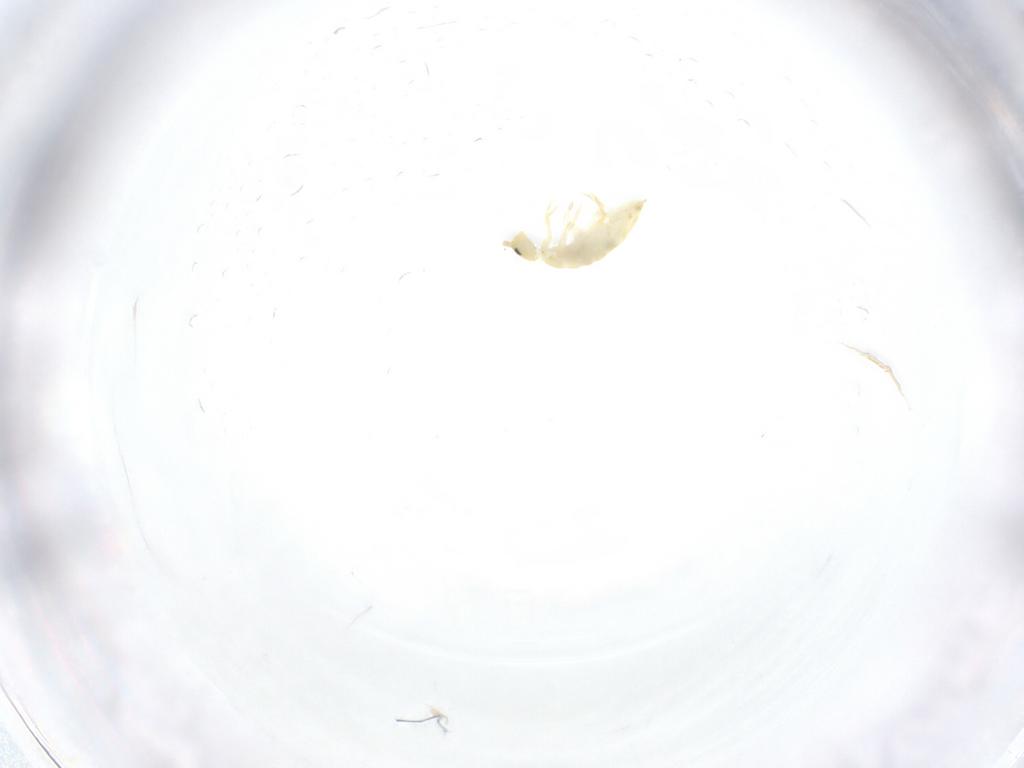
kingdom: Animalia
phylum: Arthropoda
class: Collembola
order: Entomobryomorpha
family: Entomobryidae
